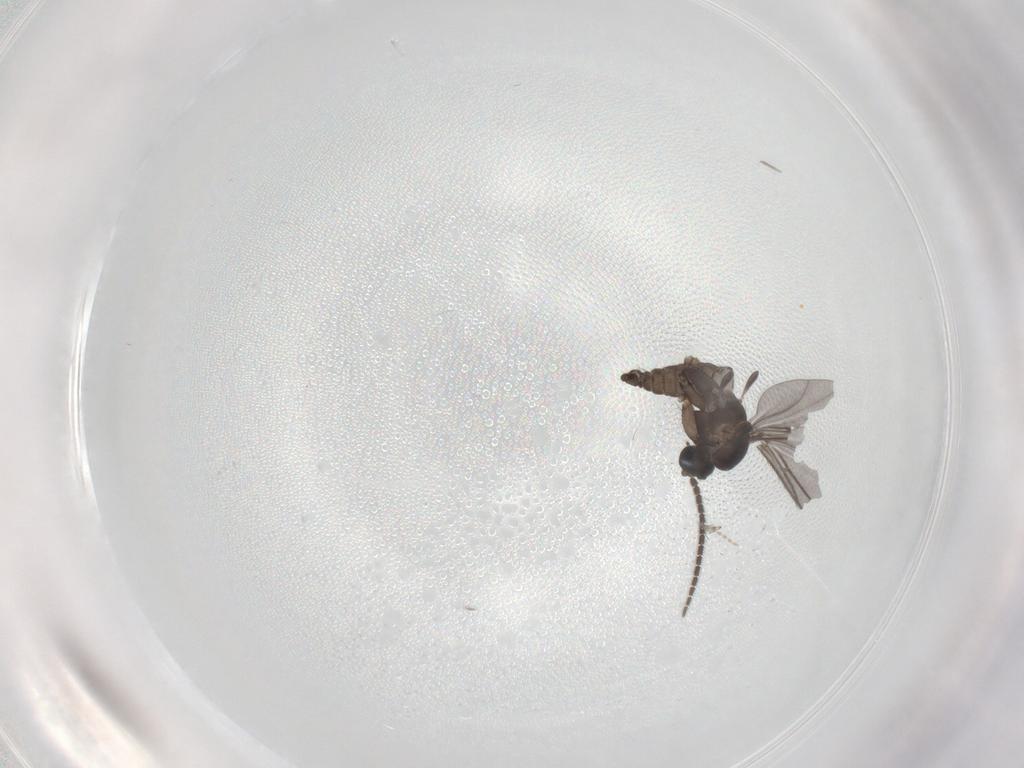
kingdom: Animalia
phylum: Arthropoda
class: Insecta
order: Diptera
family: Sciaridae
